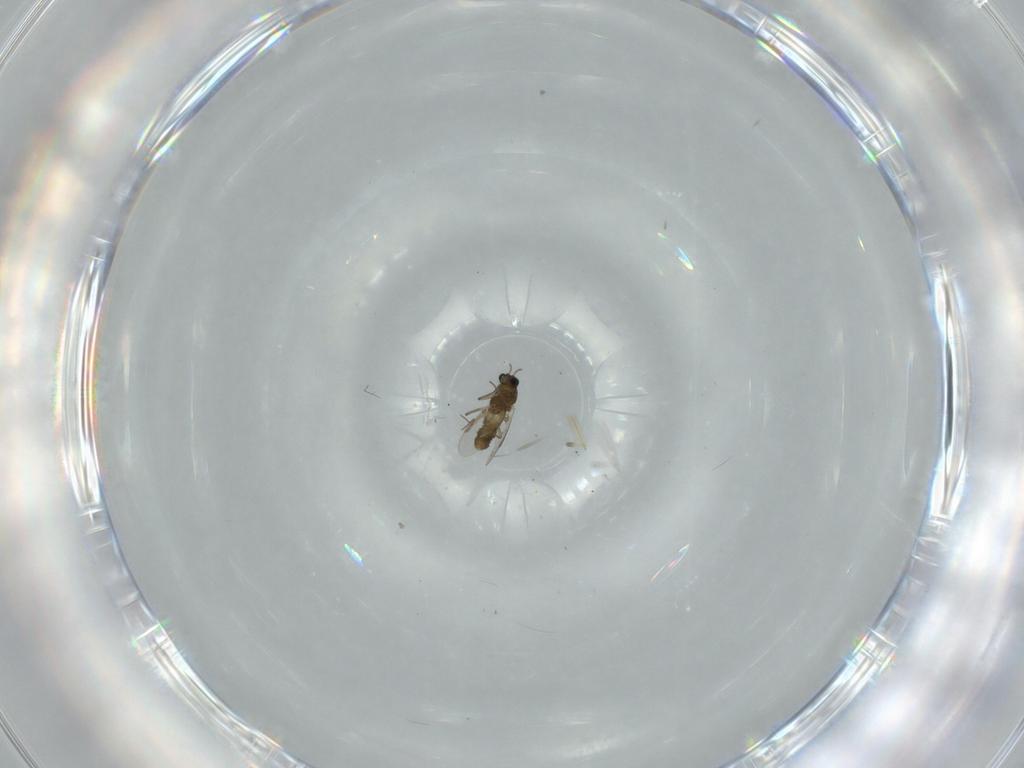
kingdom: Animalia
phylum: Arthropoda
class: Insecta
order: Diptera
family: Chironomidae
